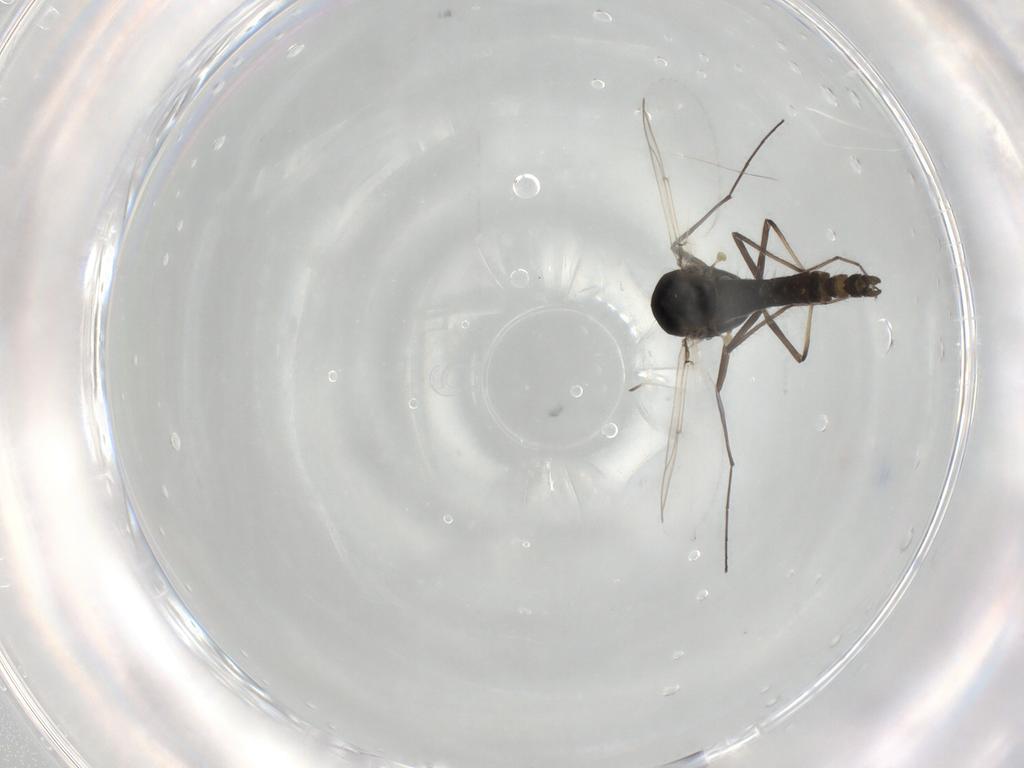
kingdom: Animalia
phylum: Arthropoda
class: Insecta
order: Diptera
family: Chironomidae
